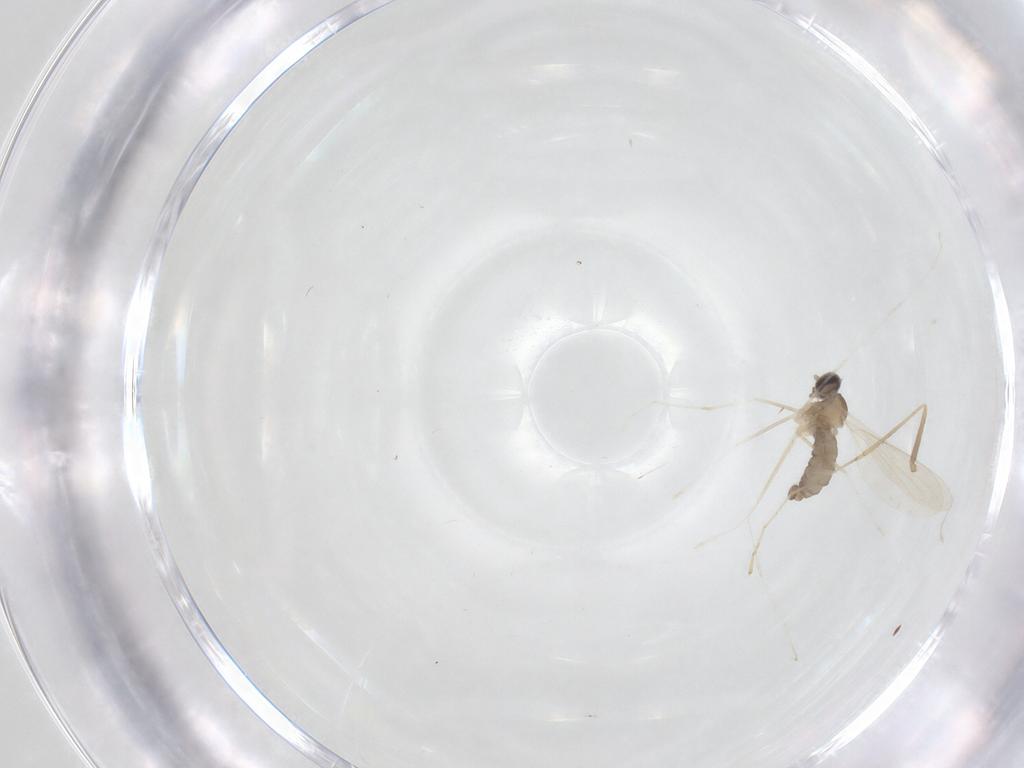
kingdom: Animalia
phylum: Arthropoda
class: Insecta
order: Diptera
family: Cecidomyiidae
